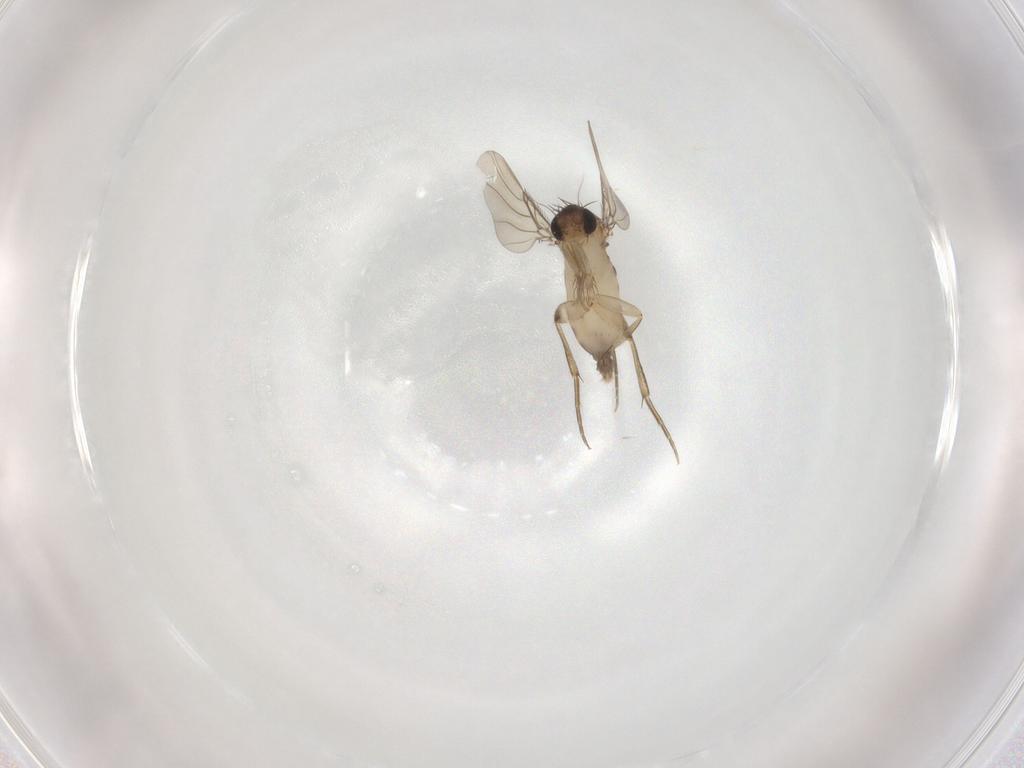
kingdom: Animalia
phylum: Arthropoda
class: Insecta
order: Diptera
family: Phoridae
